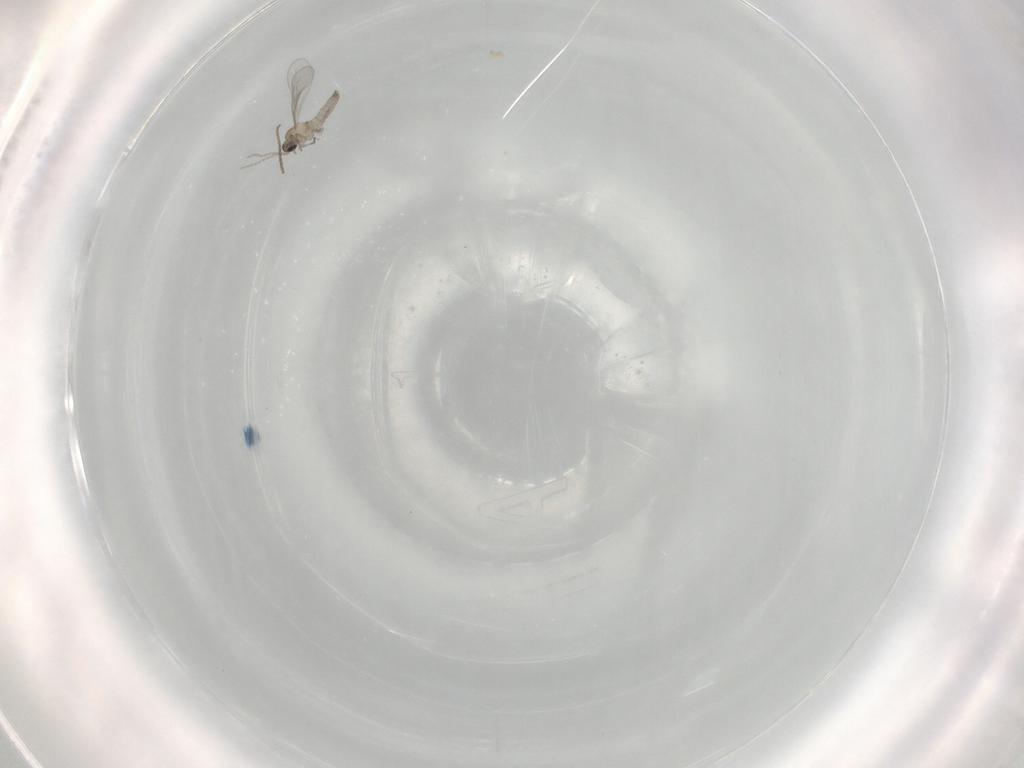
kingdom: Animalia
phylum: Arthropoda
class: Insecta
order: Diptera
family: Cecidomyiidae
